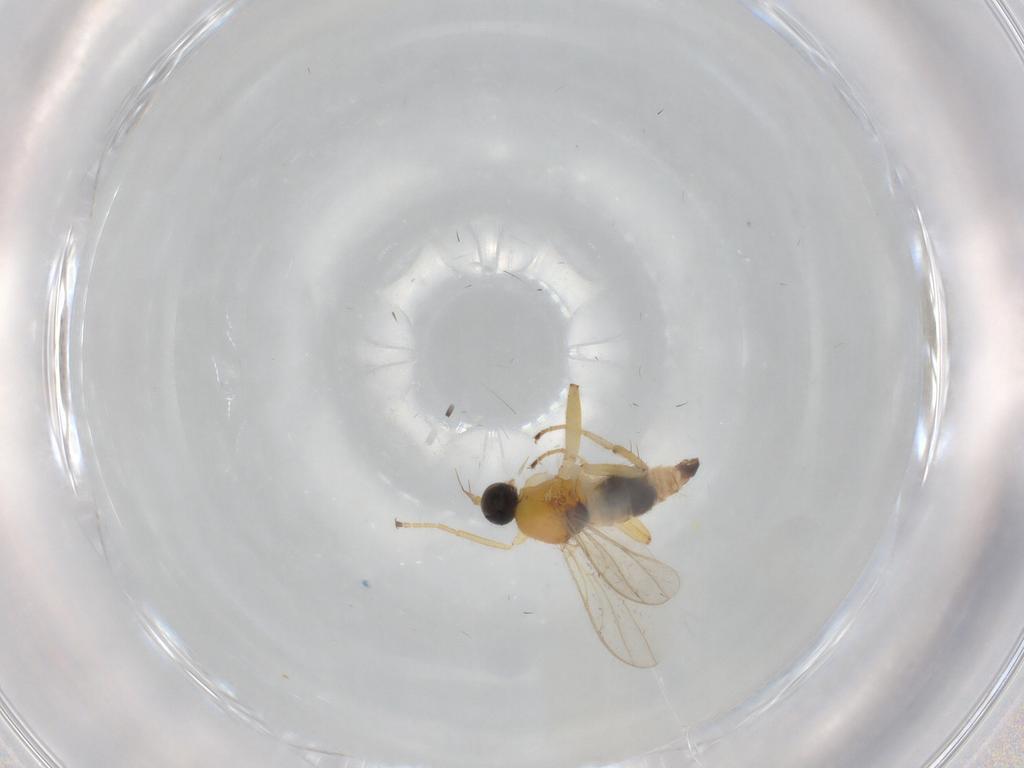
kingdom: Animalia
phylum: Arthropoda
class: Insecta
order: Diptera
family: Hybotidae
